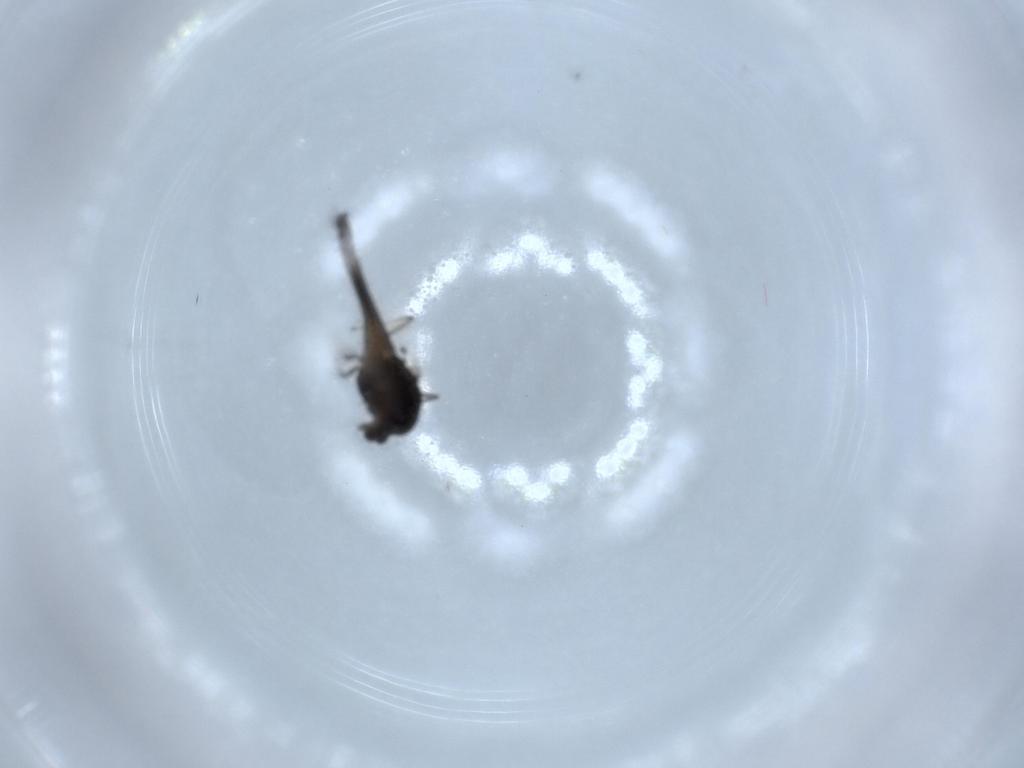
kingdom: Animalia
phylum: Arthropoda
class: Insecta
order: Diptera
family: Chironomidae
